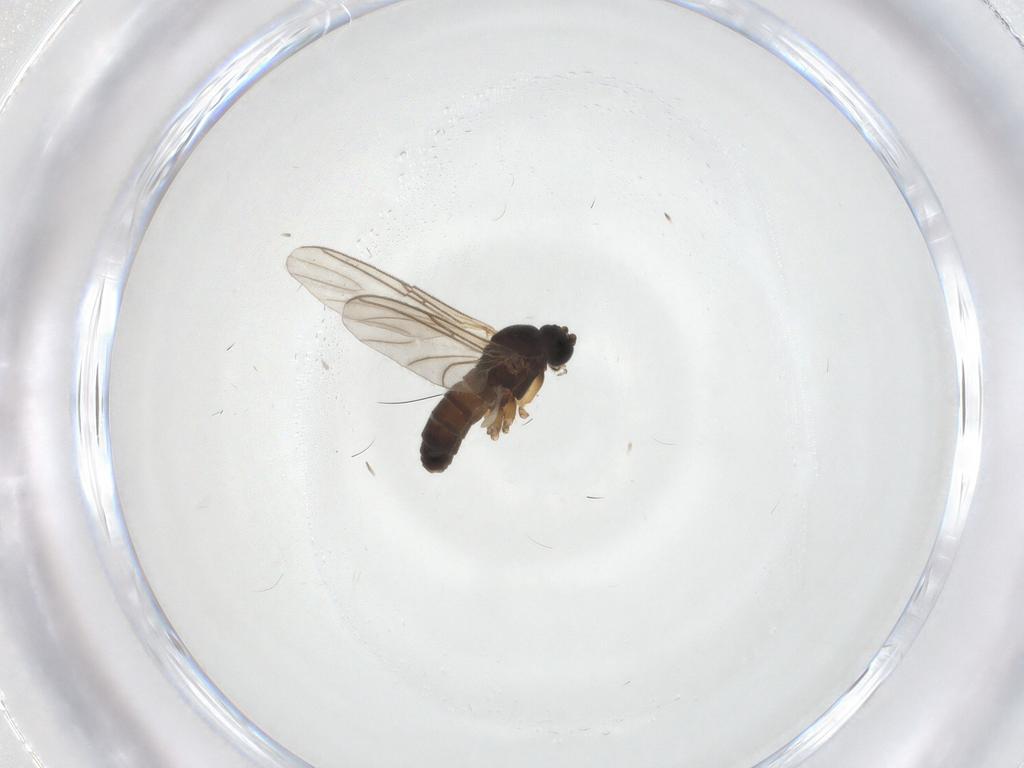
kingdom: Animalia
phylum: Arthropoda
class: Insecta
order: Diptera
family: Sciaridae
